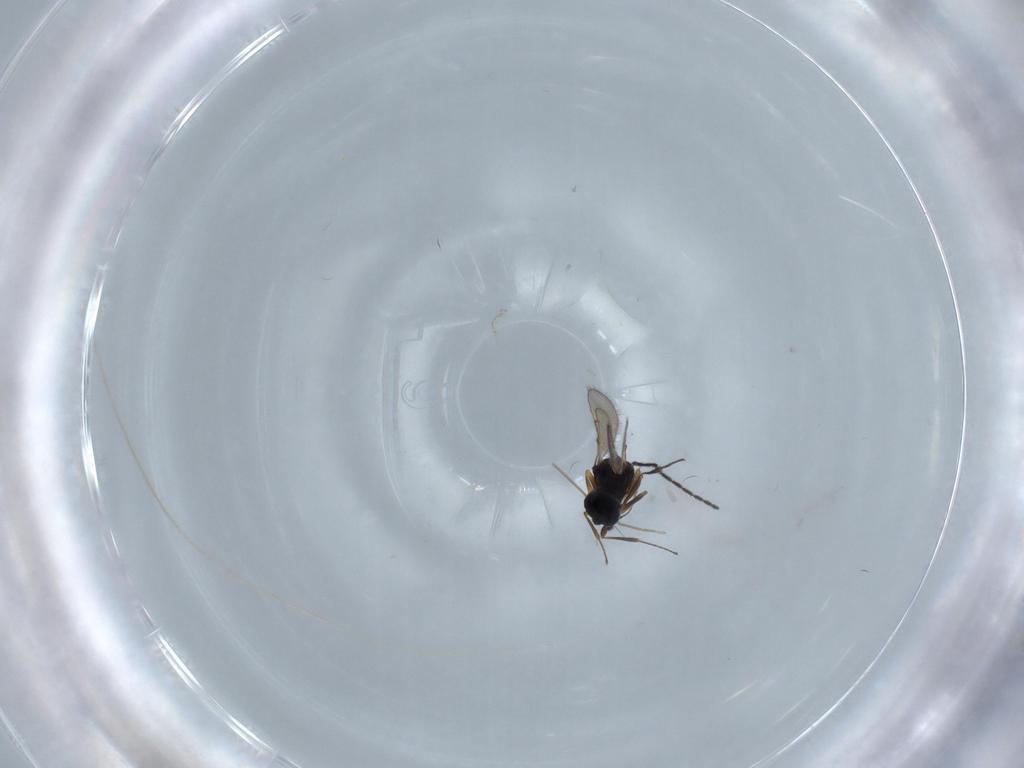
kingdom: Animalia
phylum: Arthropoda
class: Insecta
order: Hymenoptera
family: Scelionidae
